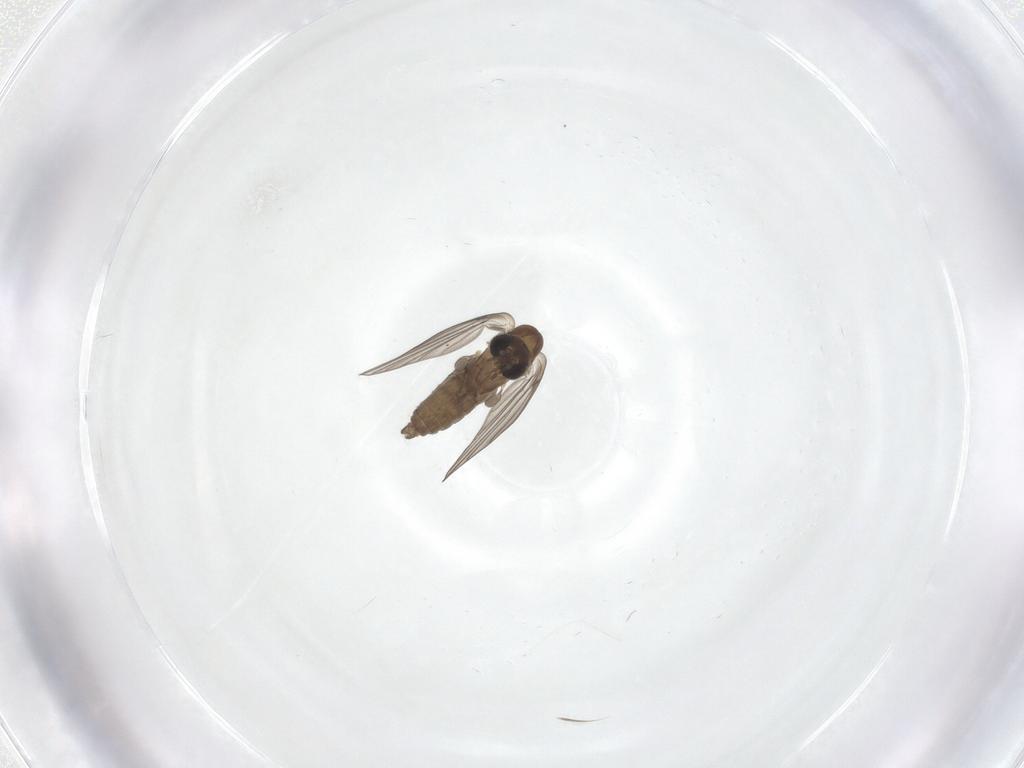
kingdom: Animalia
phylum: Arthropoda
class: Insecta
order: Diptera
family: Psychodidae
